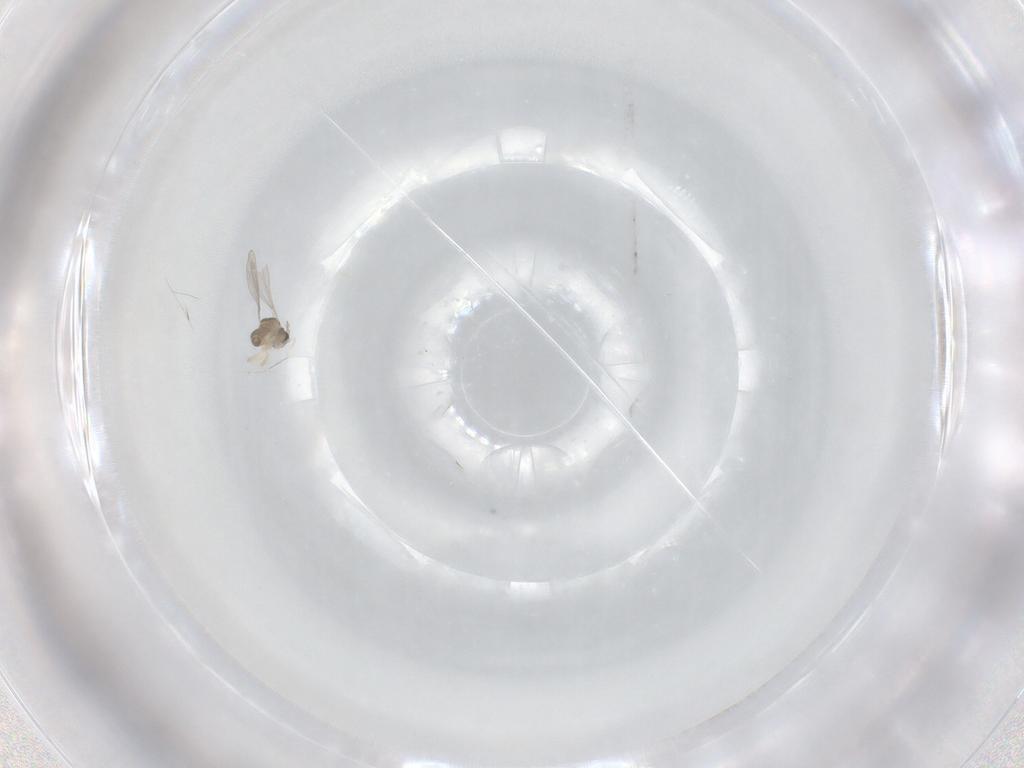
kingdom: Animalia
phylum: Arthropoda
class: Insecta
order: Diptera
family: Cecidomyiidae
